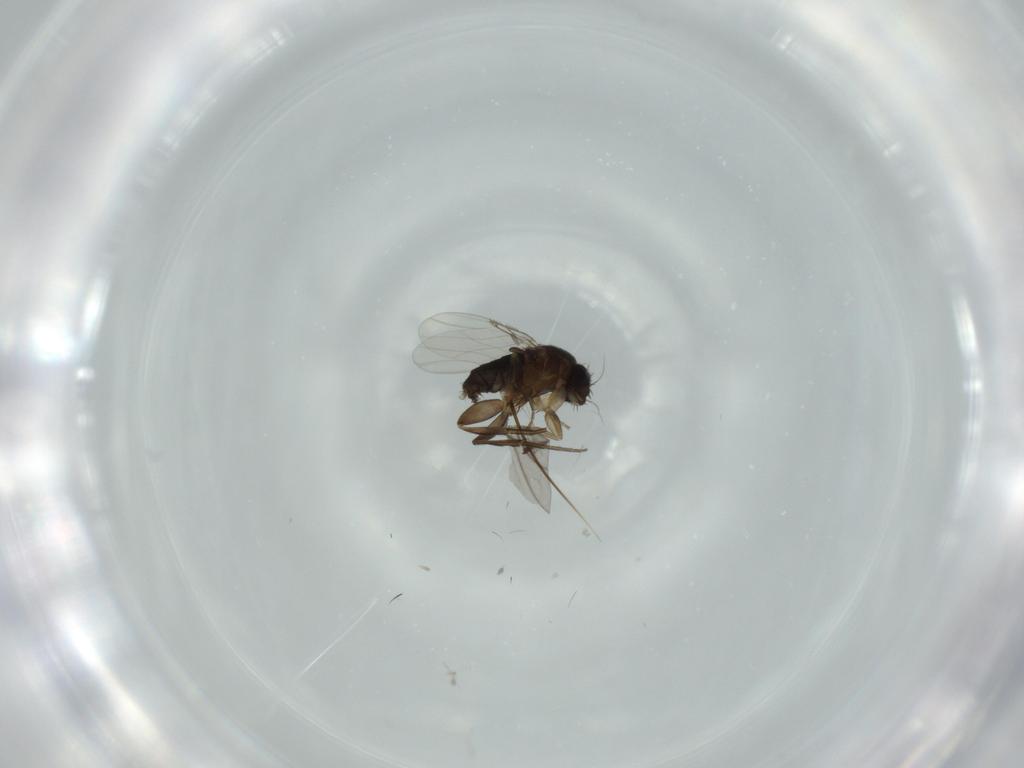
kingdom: Animalia
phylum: Arthropoda
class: Insecta
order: Diptera
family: Phoridae
